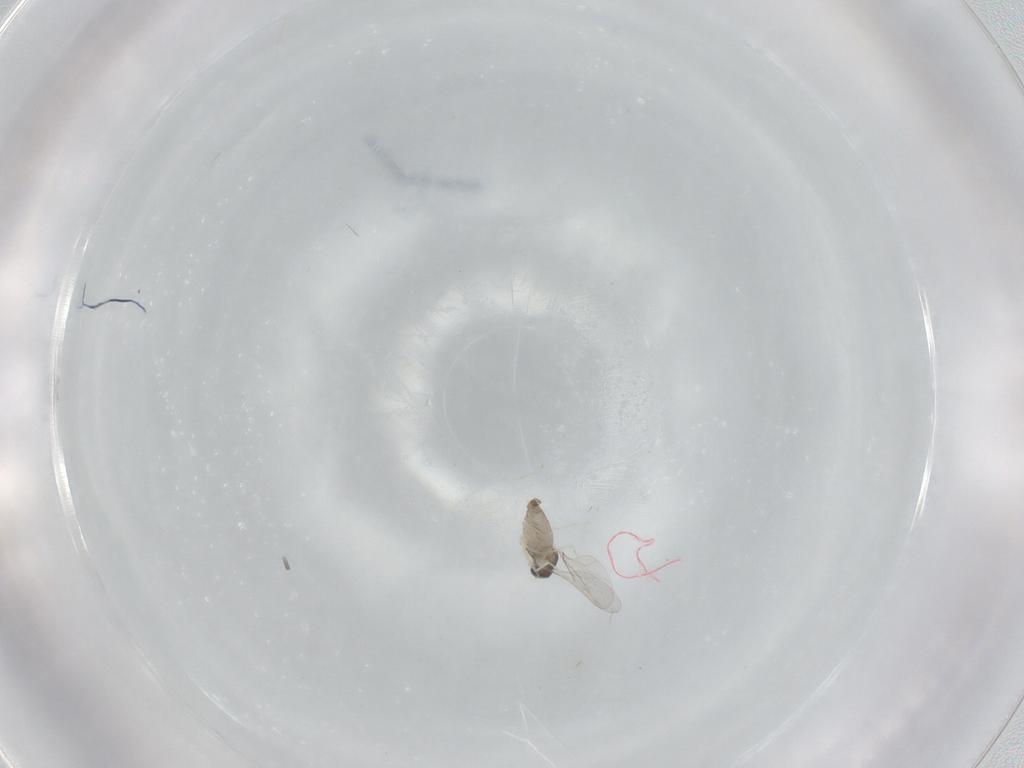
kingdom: Animalia
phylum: Arthropoda
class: Insecta
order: Diptera
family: Cecidomyiidae
